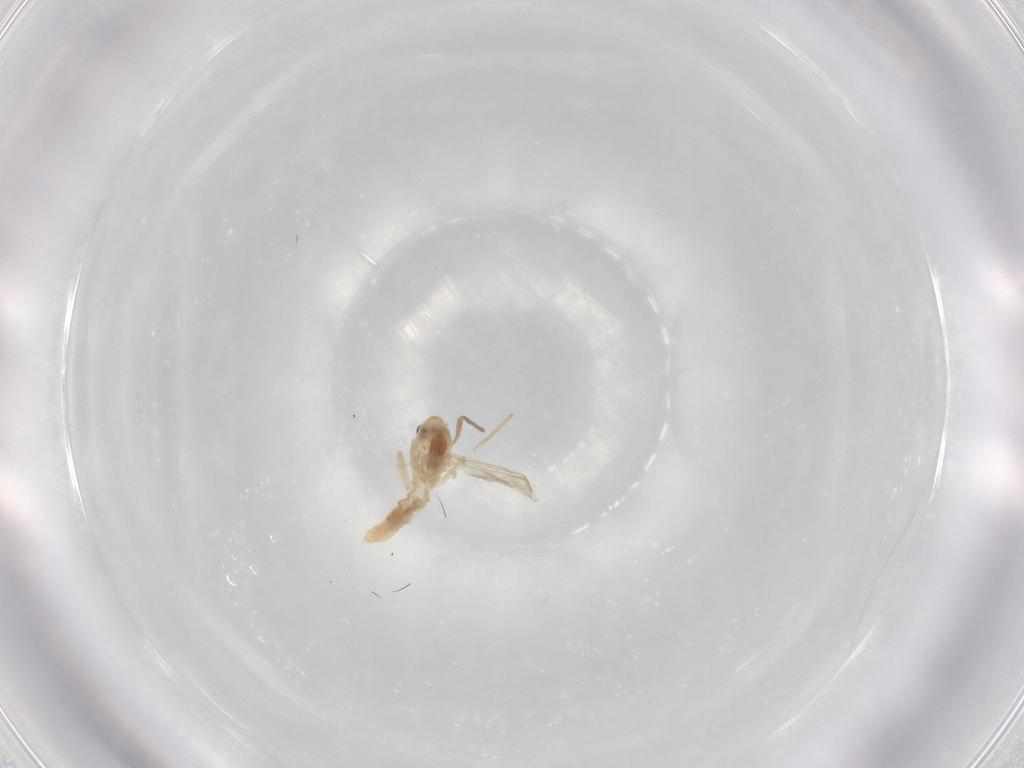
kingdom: Animalia
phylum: Arthropoda
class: Insecta
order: Diptera
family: Chironomidae
